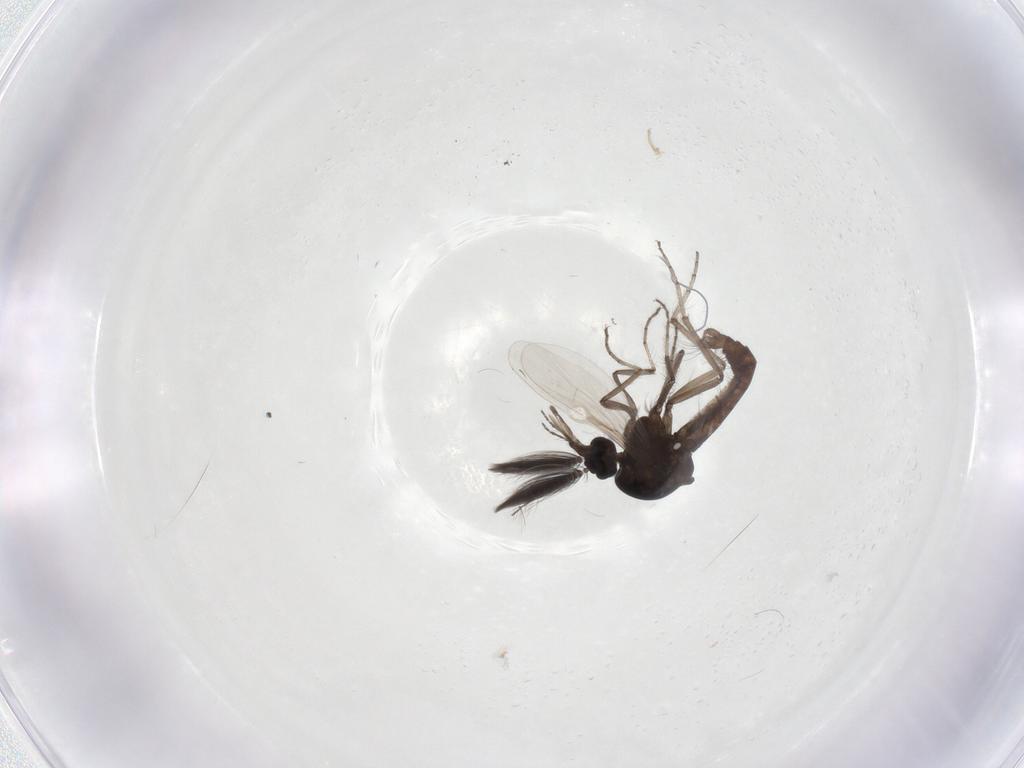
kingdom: Animalia
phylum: Arthropoda
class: Insecta
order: Diptera
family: Ceratopogonidae
